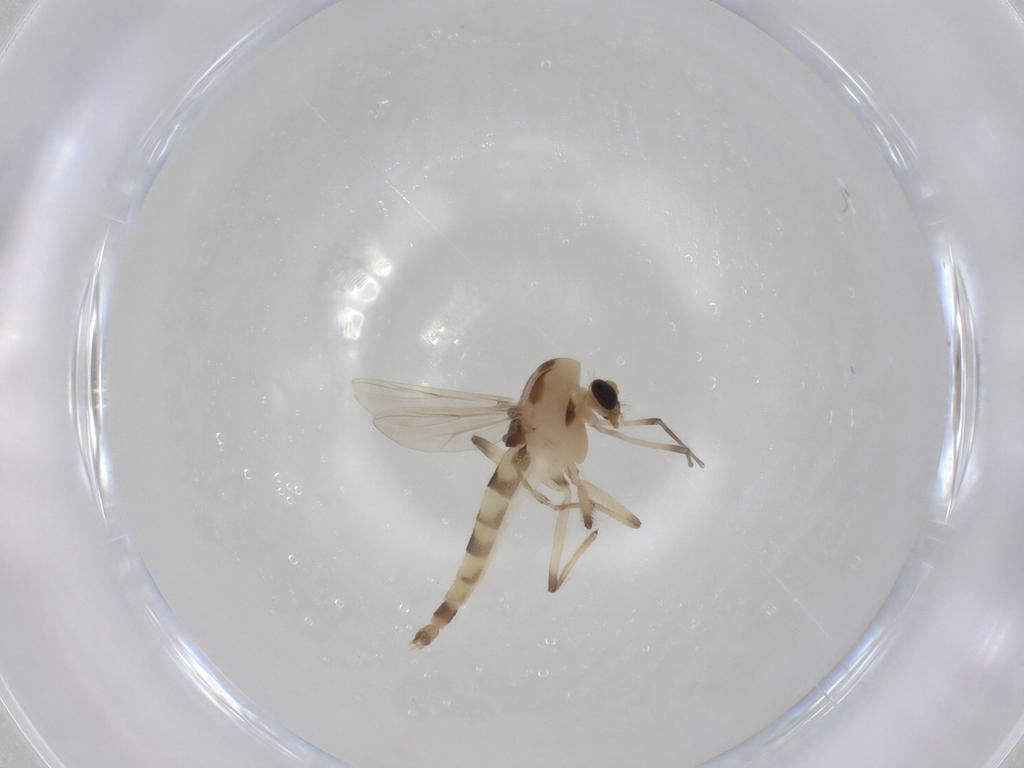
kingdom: Animalia
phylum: Arthropoda
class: Insecta
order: Diptera
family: Chironomidae
